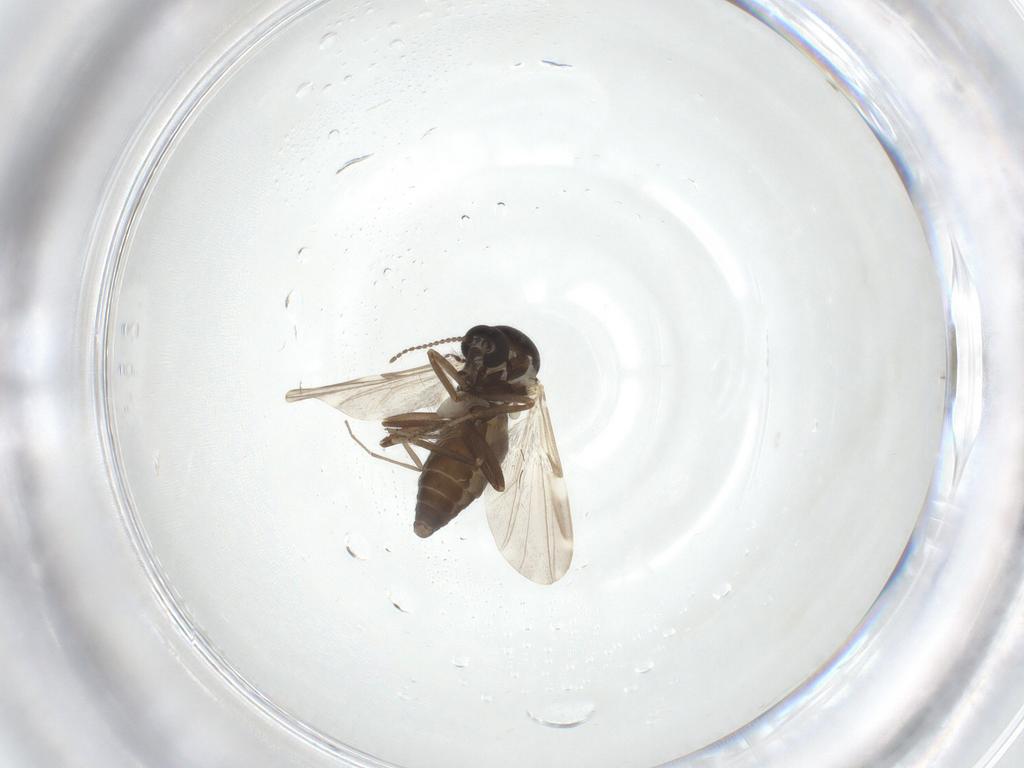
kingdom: Animalia
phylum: Arthropoda
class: Insecta
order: Diptera
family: Ceratopogonidae
